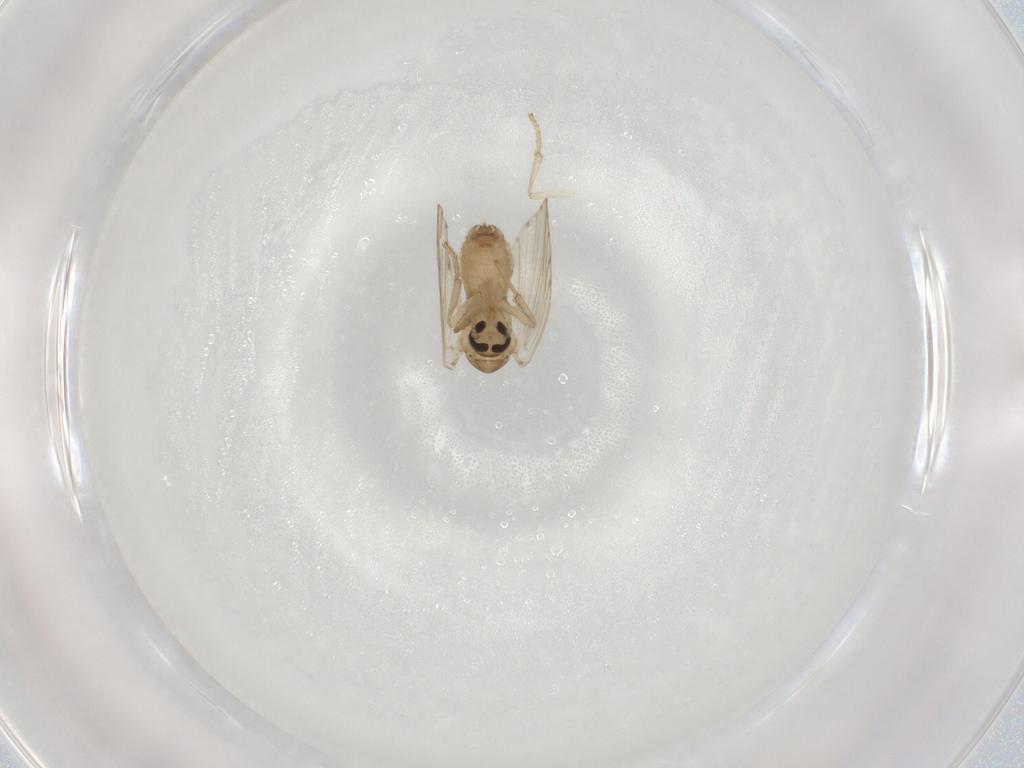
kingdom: Animalia
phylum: Arthropoda
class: Insecta
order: Diptera
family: Psychodidae
